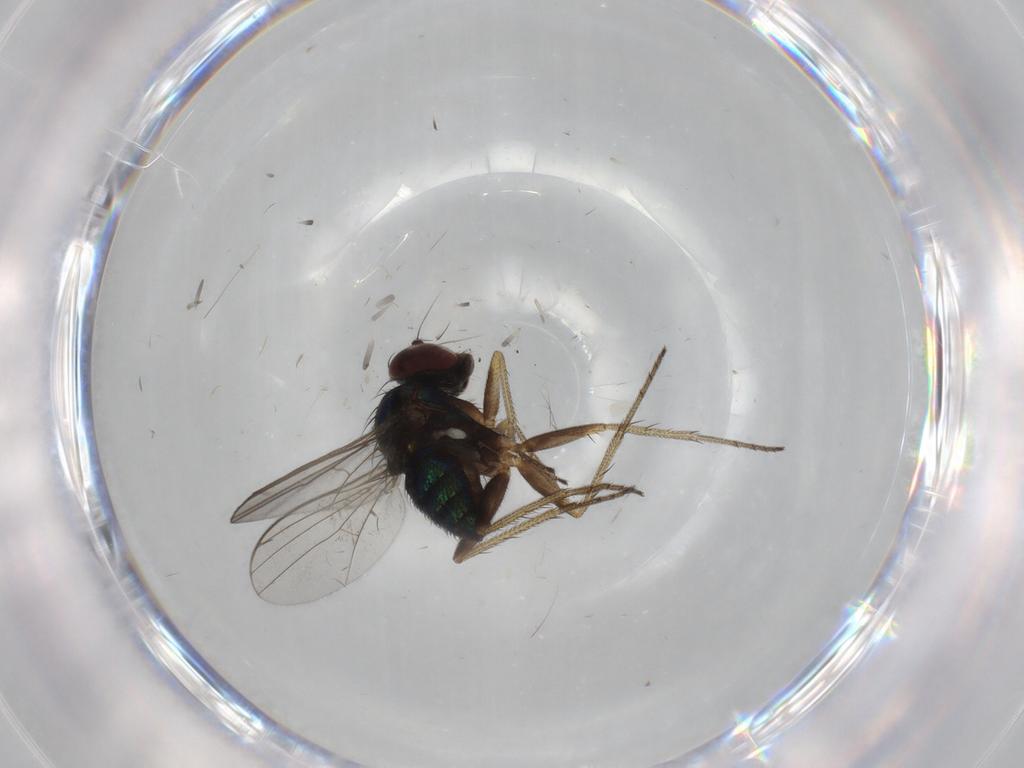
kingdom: Animalia
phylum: Arthropoda
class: Insecta
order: Diptera
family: Dolichopodidae
